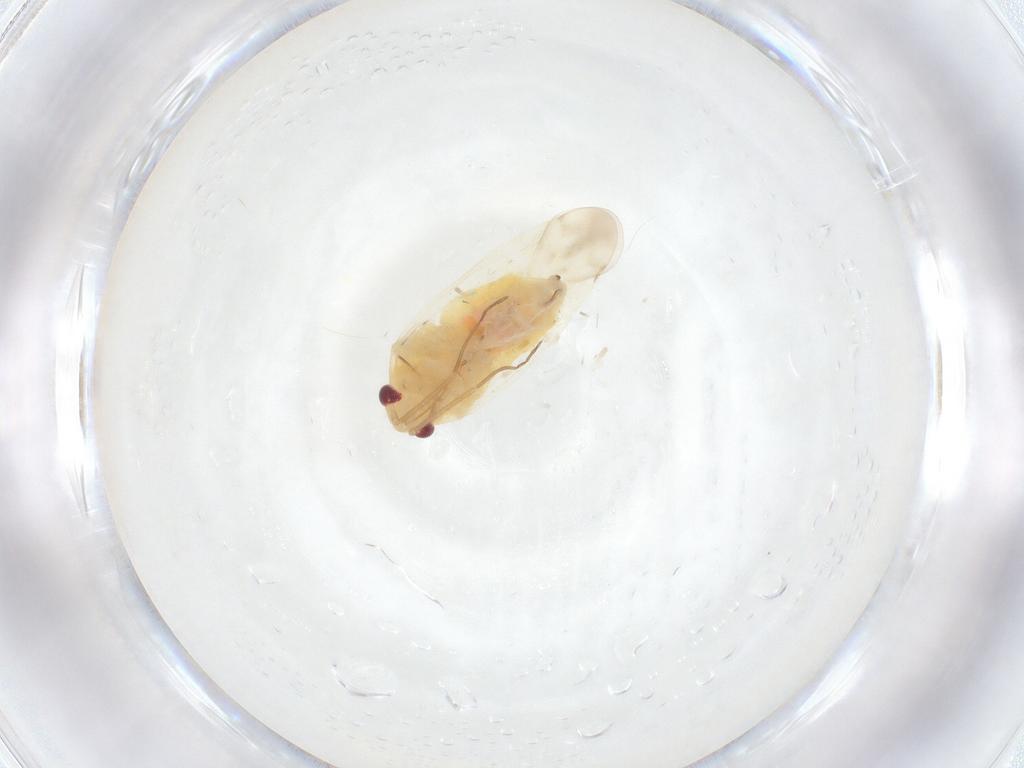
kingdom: Animalia
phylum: Arthropoda
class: Insecta
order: Hemiptera
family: Miridae
